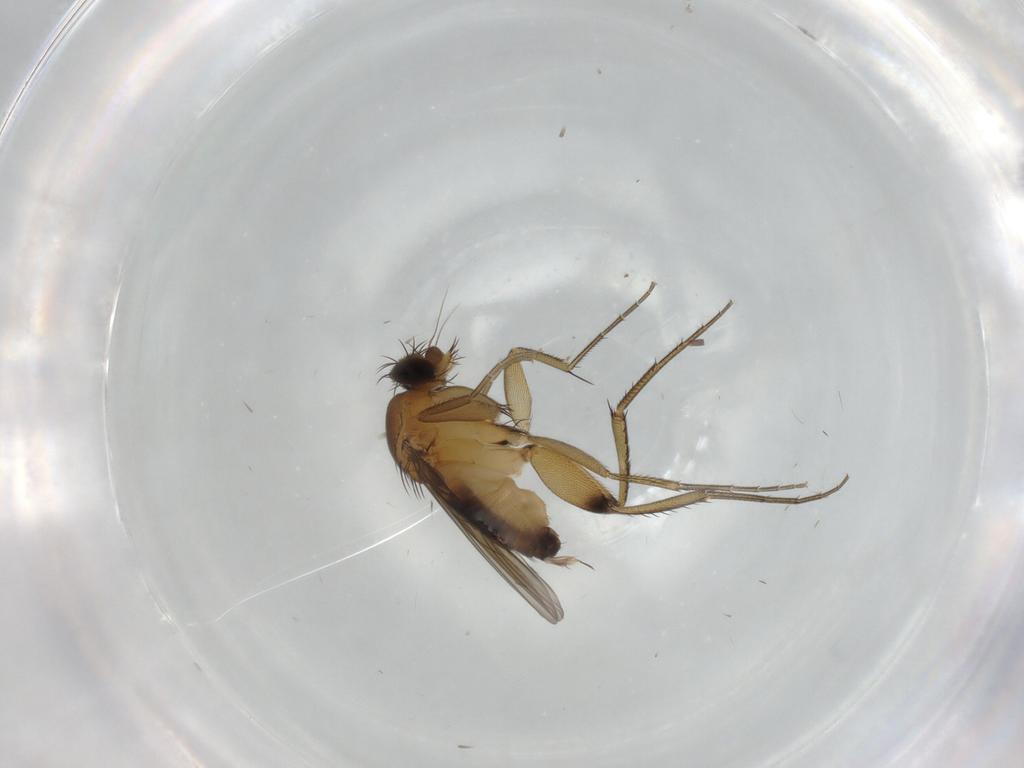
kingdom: Animalia
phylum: Arthropoda
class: Insecta
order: Diptera
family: Phoridae
